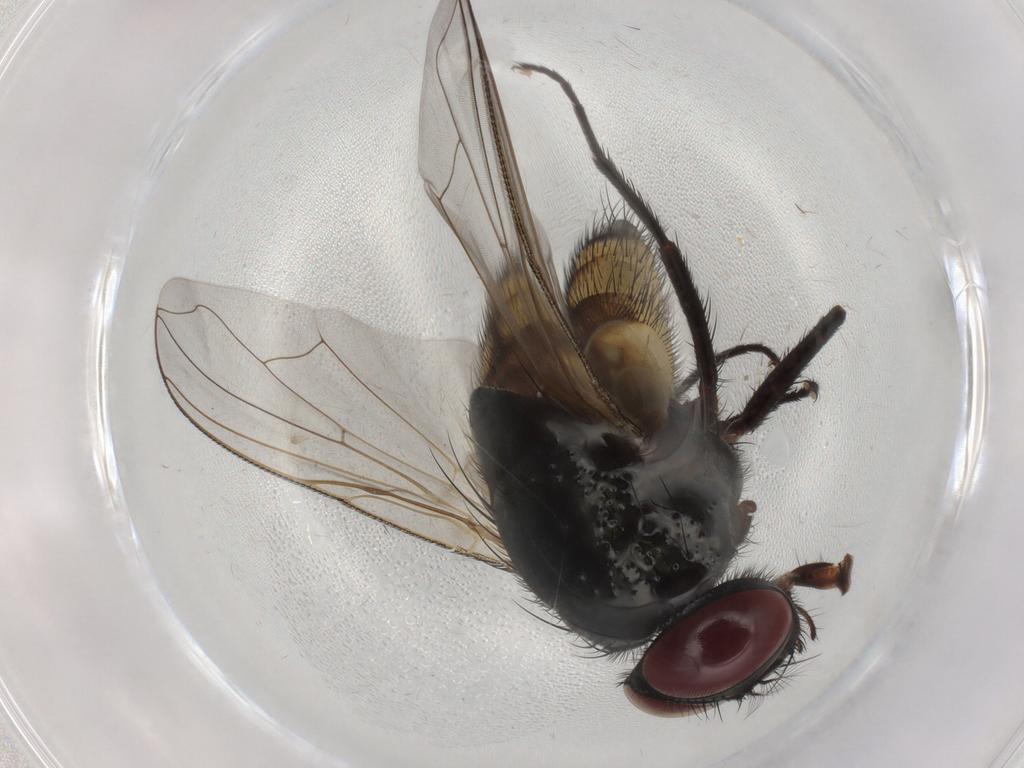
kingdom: Animalia
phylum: Arthropoda
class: Insecta
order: Diptera
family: Muscidae
